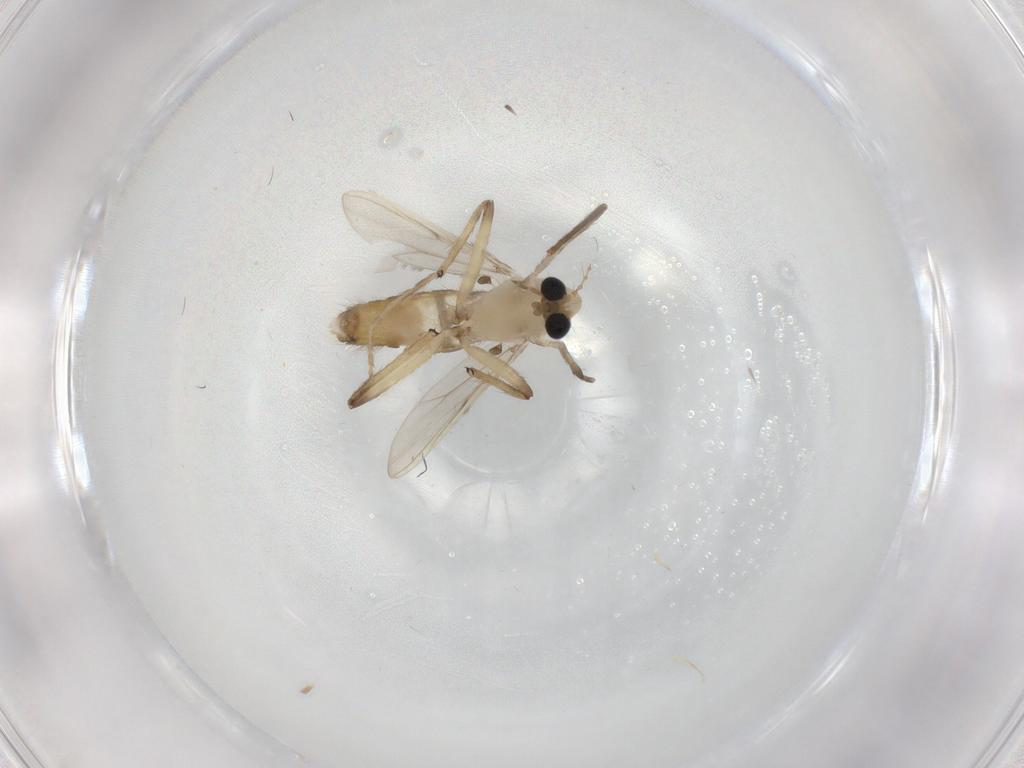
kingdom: Animalia
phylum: Arthropoda
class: Insecta
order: Diptera
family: Chironomidae
